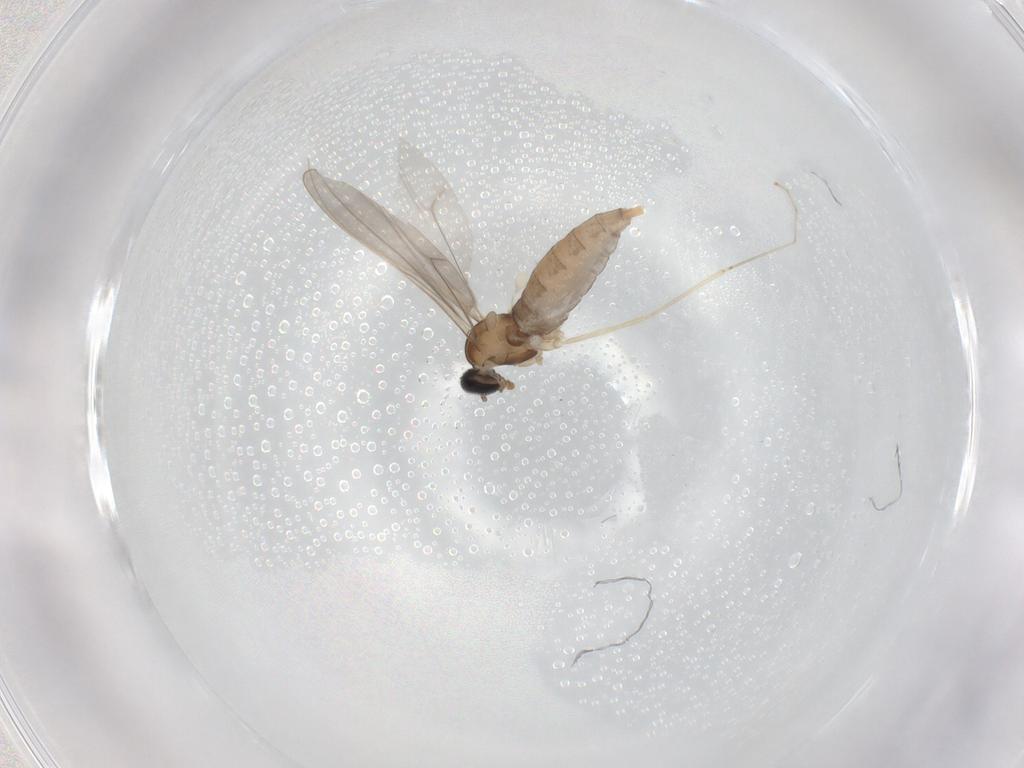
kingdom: Animalia
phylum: Arthropoda
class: Insecta
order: Diptera
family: Cecidomyiidae
